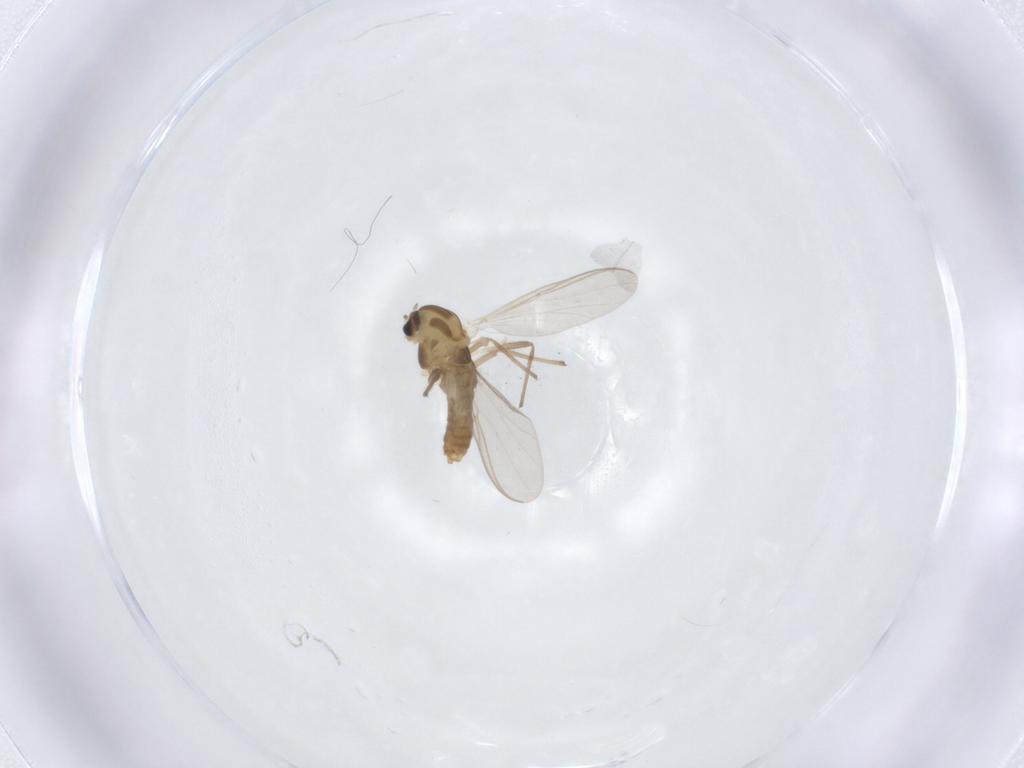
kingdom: Animalia
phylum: Arthropoda
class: Insecta
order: Diptera
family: Chironomidae
